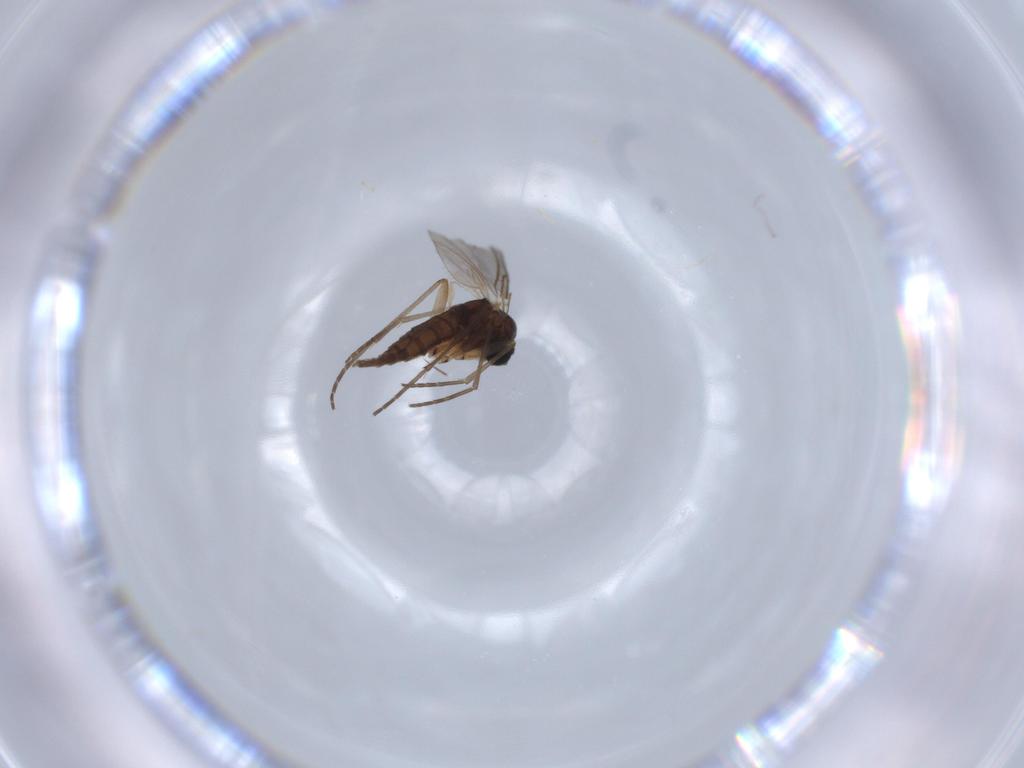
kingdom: Animalia
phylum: Arthropoda
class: Insecta
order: Diptera
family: Sciaridae
